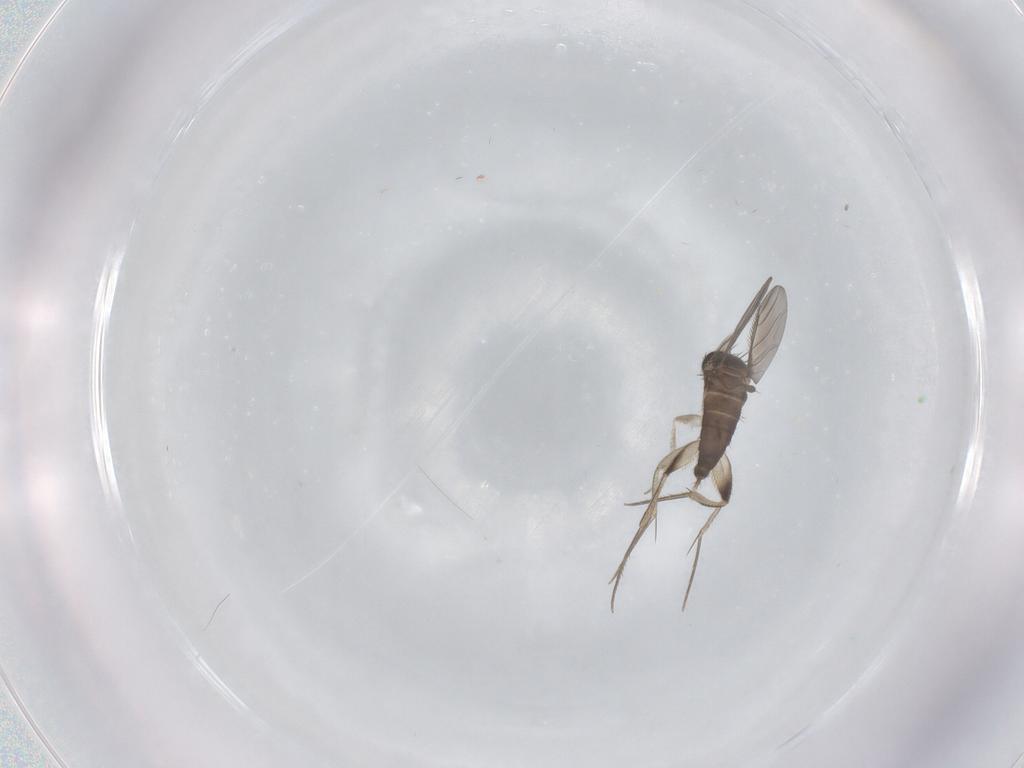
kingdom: Animalia
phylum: Arthropoda
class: Insecta
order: Diptera
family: Phoridae
